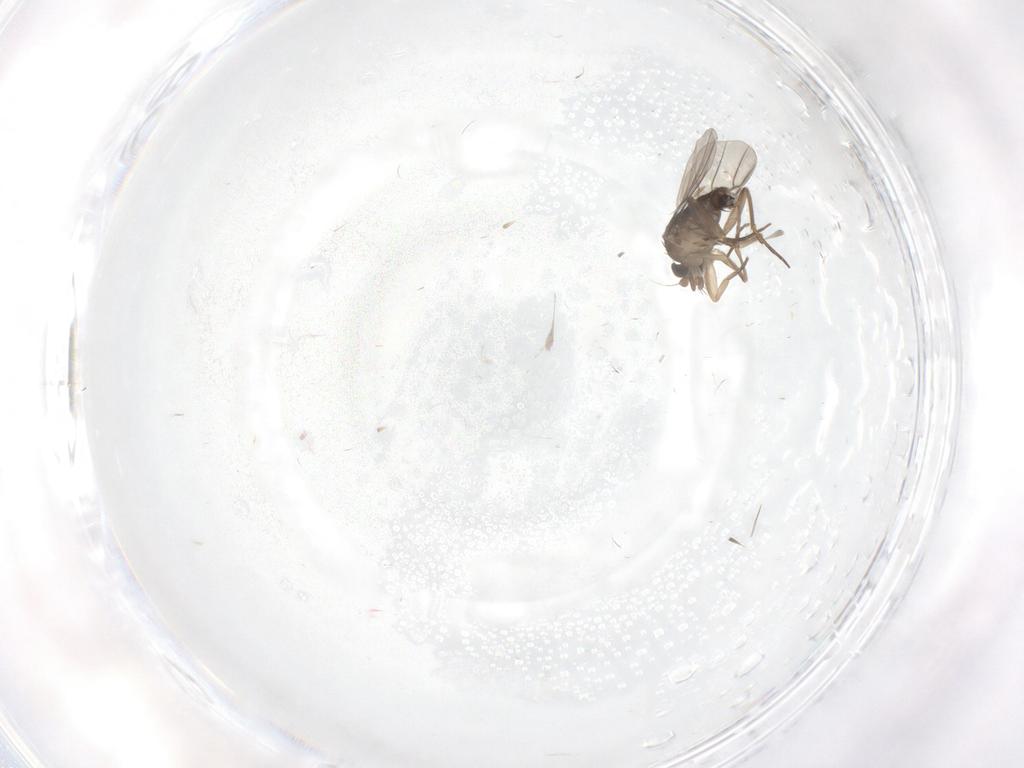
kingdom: Animalia
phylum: Arthropoda
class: Insecta
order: Diptera
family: Phoridae
